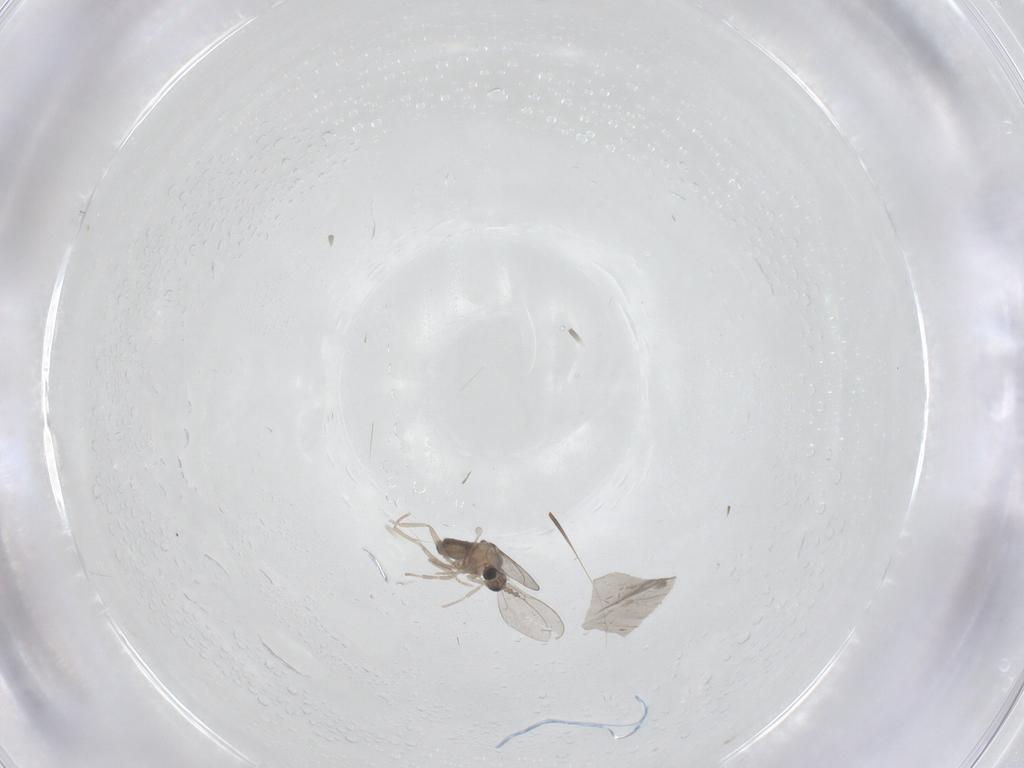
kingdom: Animalia
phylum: Arthropoda
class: Insecta
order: Diptera
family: Cecidomyiidae
